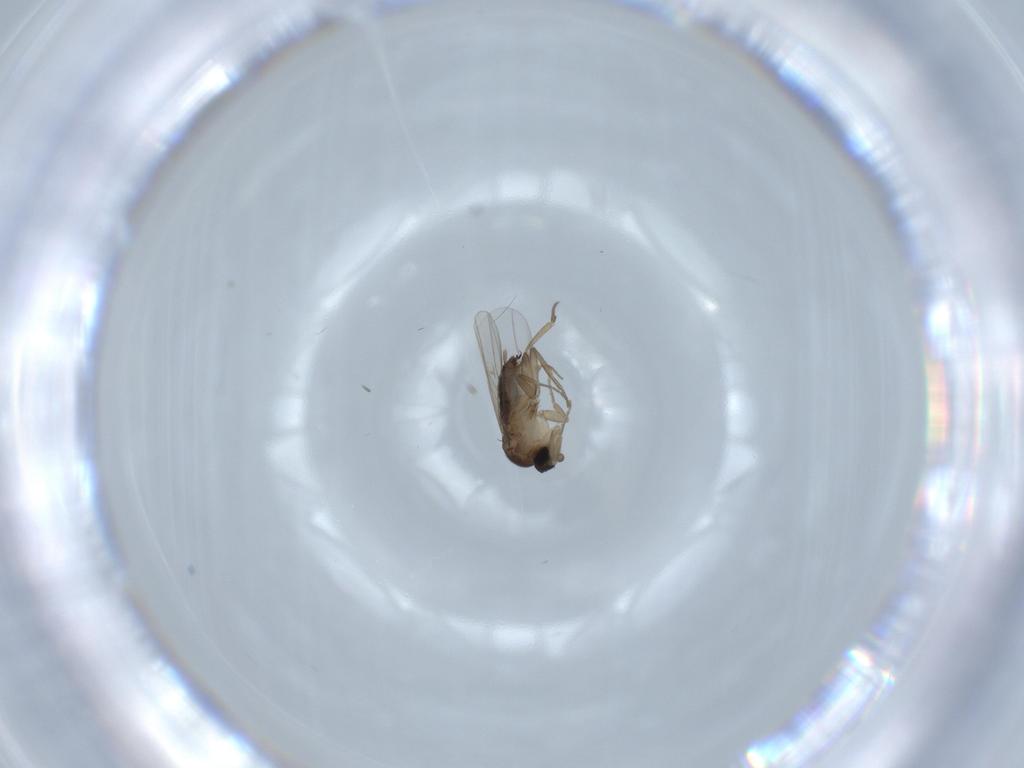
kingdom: Animalia
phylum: Arthropoda
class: Insecta
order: Diptera
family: Phoridae
